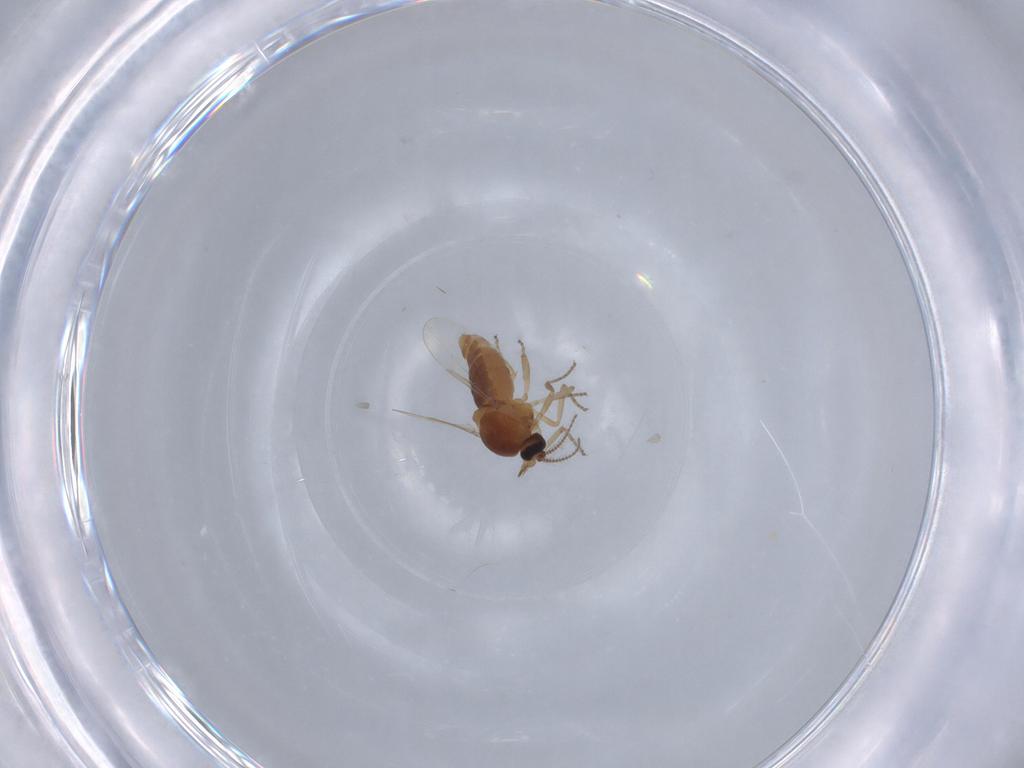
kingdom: Animalia
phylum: Arthropoda
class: Insecta
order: Diptera
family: Ceratopogonidae
